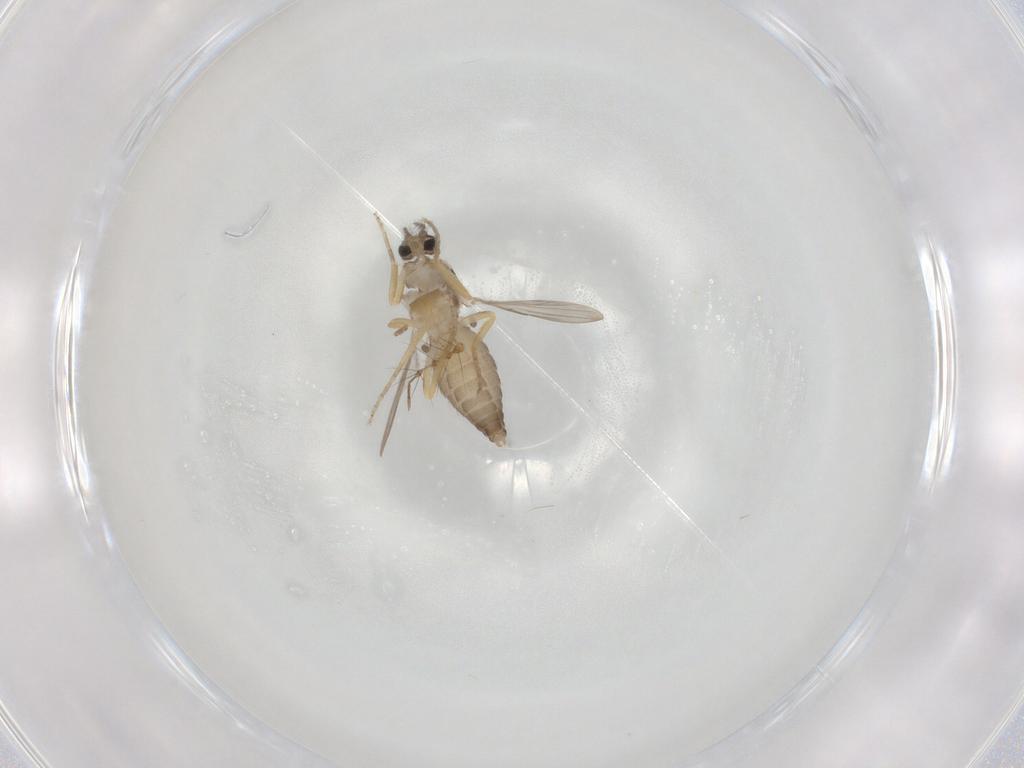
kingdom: Animalia
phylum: Arthropoda
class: Insecta
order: Diptera
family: Ceratopogonidae
